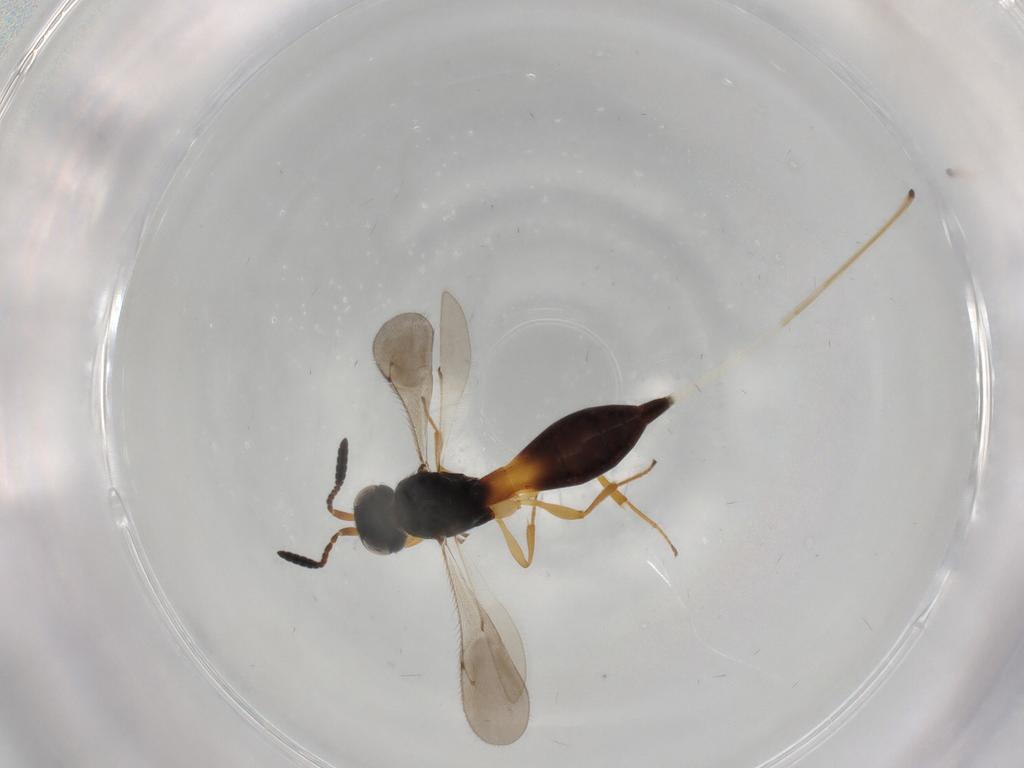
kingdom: Animalia
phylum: Arthropoda
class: Insecta
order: Hymenoptera
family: Scelionidae
